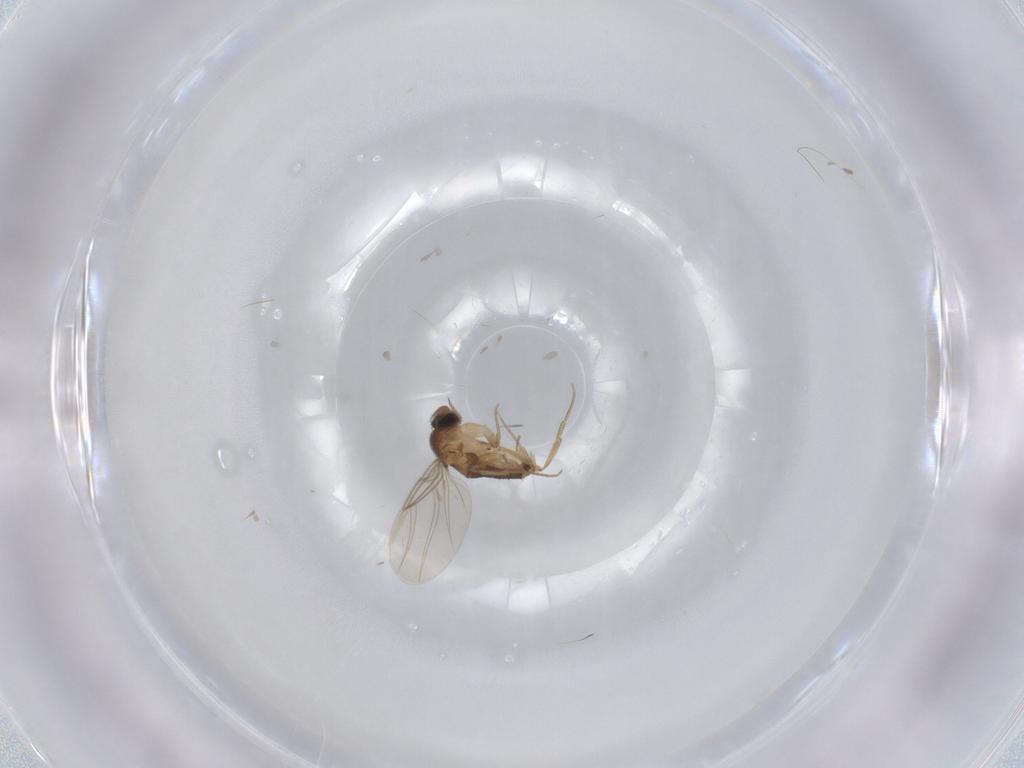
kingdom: Animalia
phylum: Arthropoda
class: Insecta
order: Diptera
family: Phoridae
